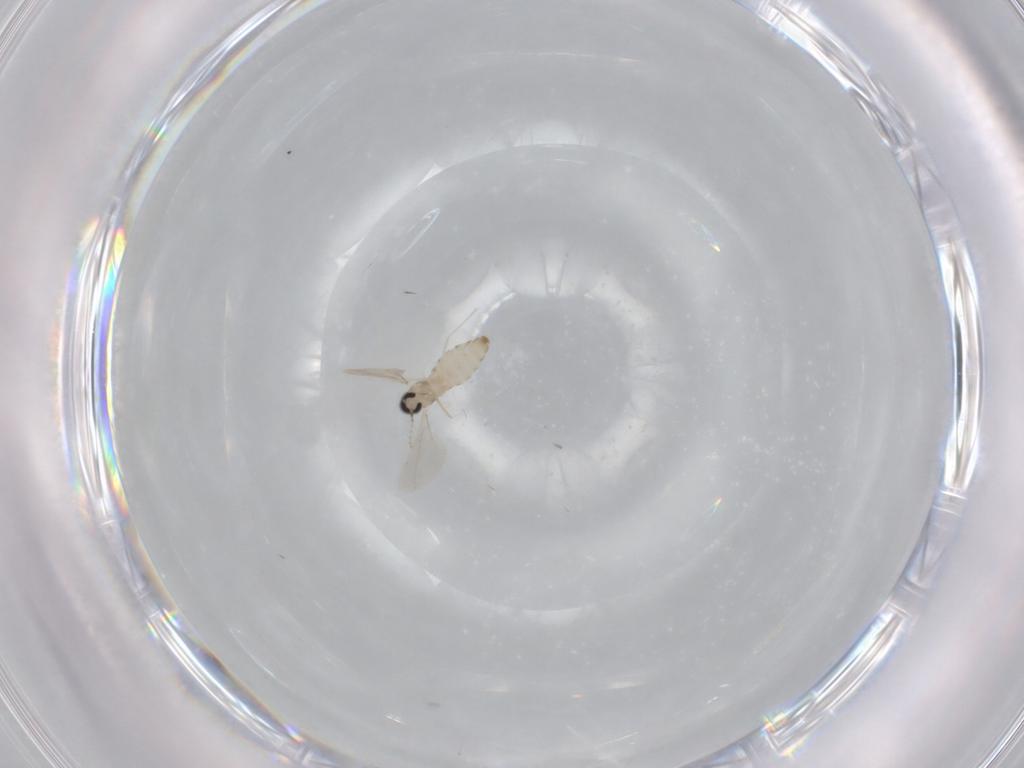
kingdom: Animalia
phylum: Arthropoda
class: Insecta
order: Diptera
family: Cecidomyiidae
